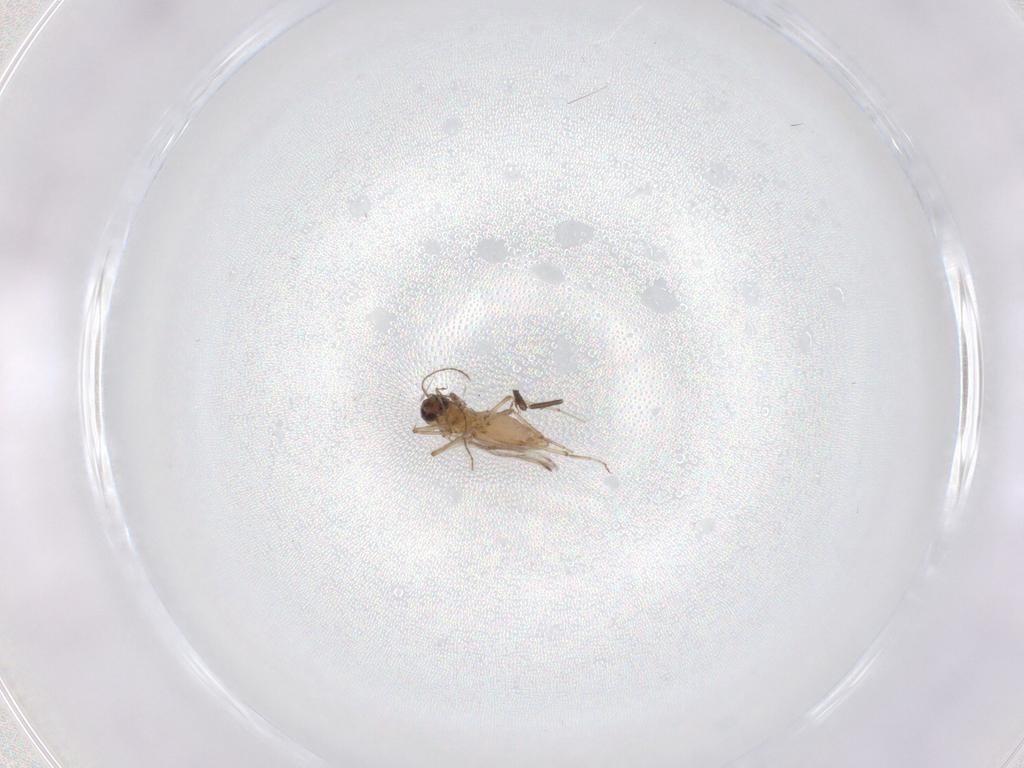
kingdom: Animalia
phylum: Arthropoda
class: Insecta
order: Diptera
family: Ceratopogonidae
